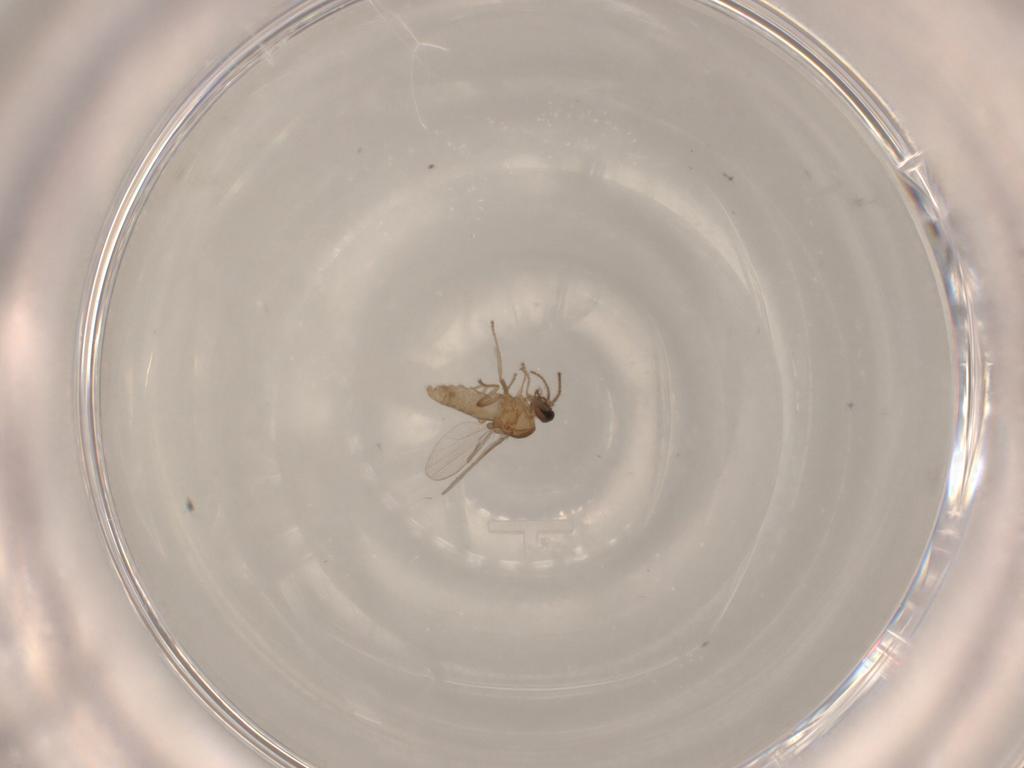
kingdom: Animalia
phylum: Arthropoda
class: Insecta
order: Diptera
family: Ceratopogonidae
